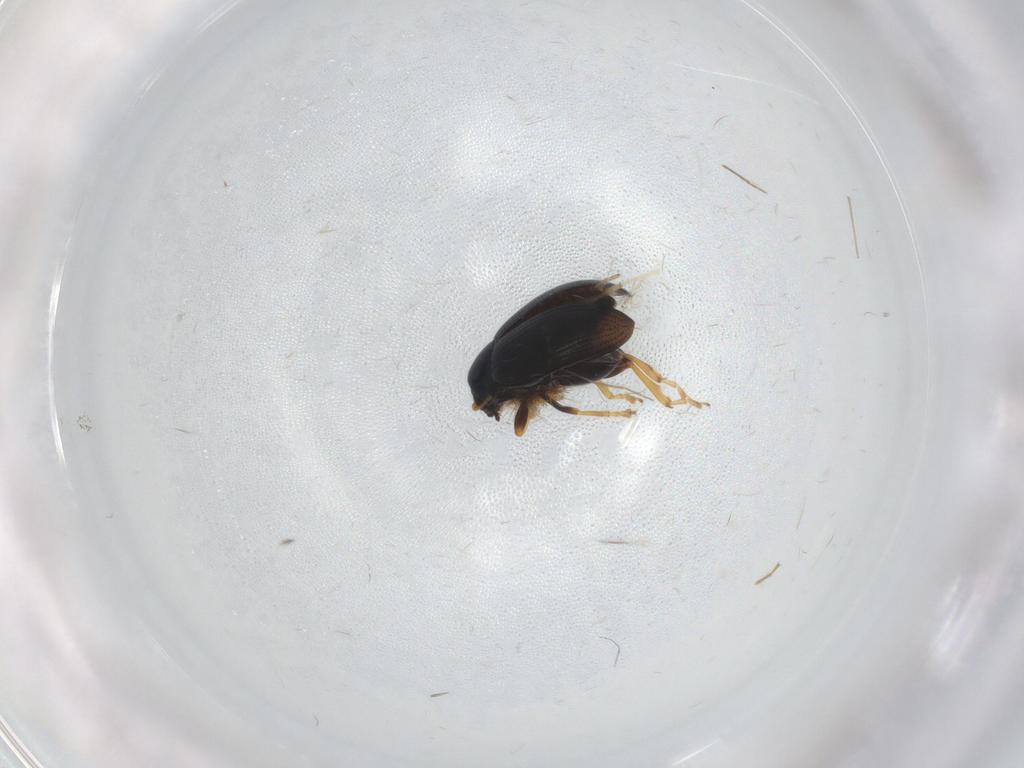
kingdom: Animalia
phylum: Arthropoda
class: Insecta
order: Coleoptera
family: Chrysomelidae
